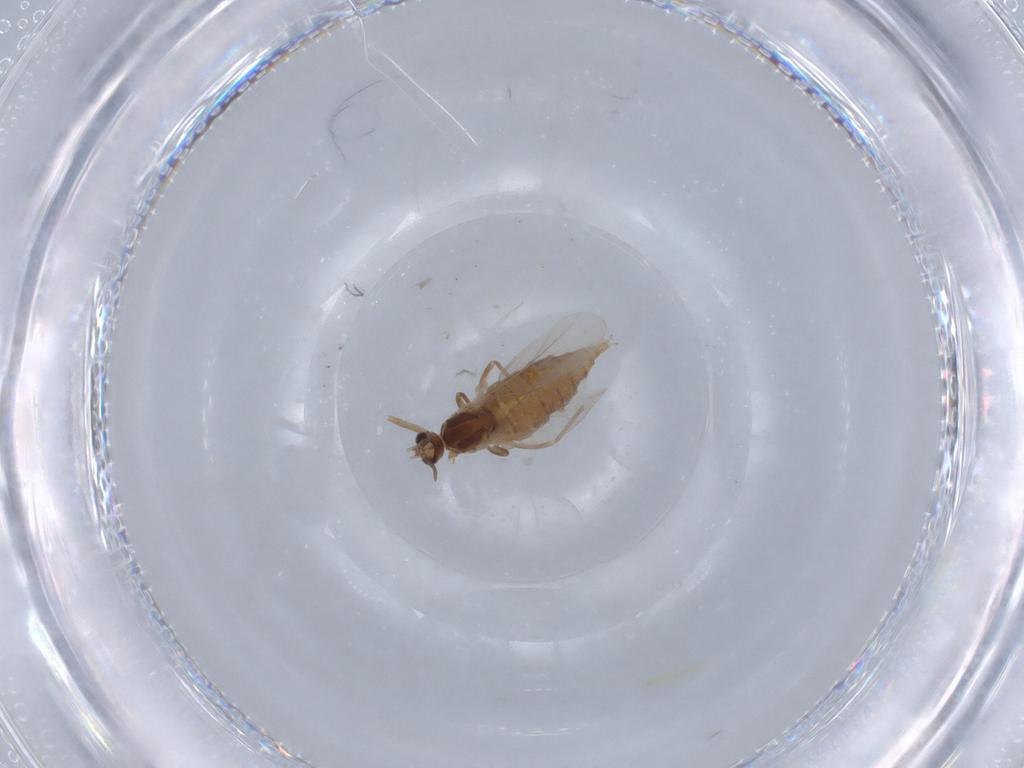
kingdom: Animalia
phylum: Arthropoda
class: Insecta
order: Diptera
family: Cecidomyiidae
